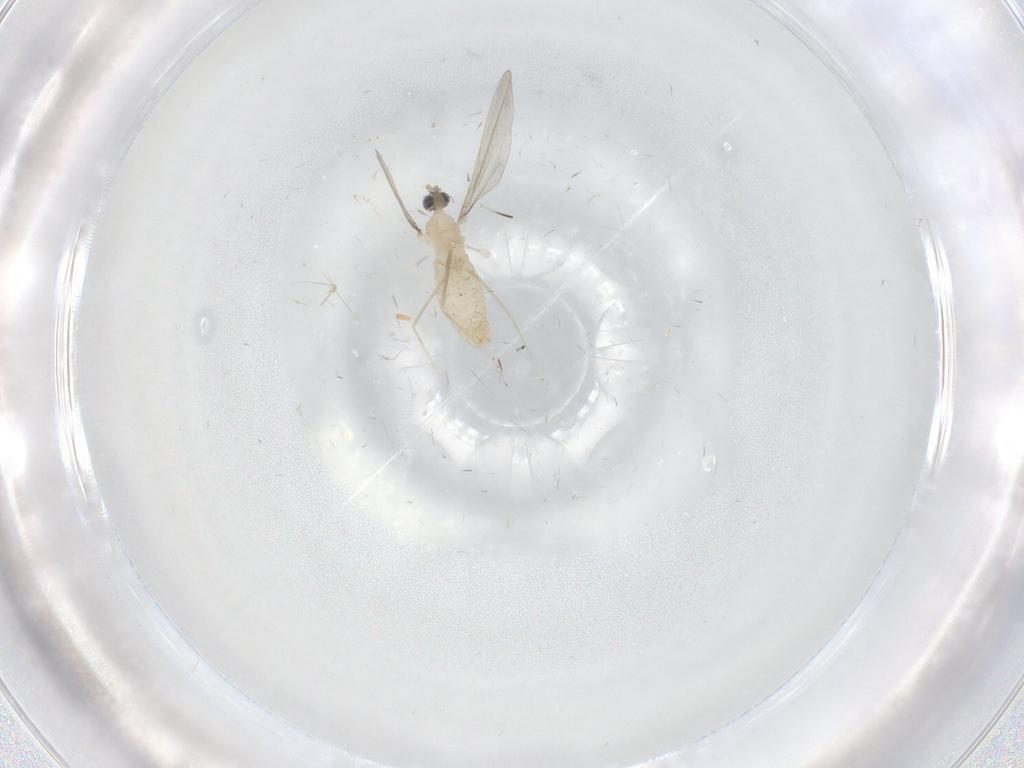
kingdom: Animalia
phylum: Arthropoda
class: Insecta
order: Diptera
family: Cecidomyiidae
